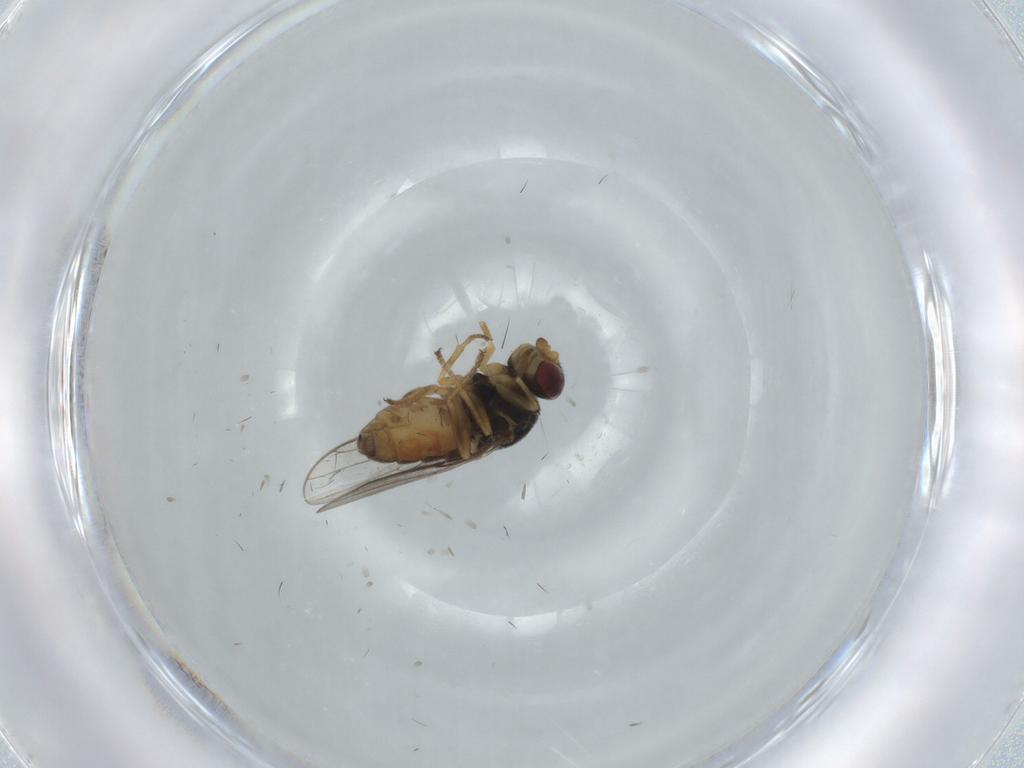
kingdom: Animalia
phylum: Arthropoda
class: Insecta
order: Diptera
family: Chloropidae
